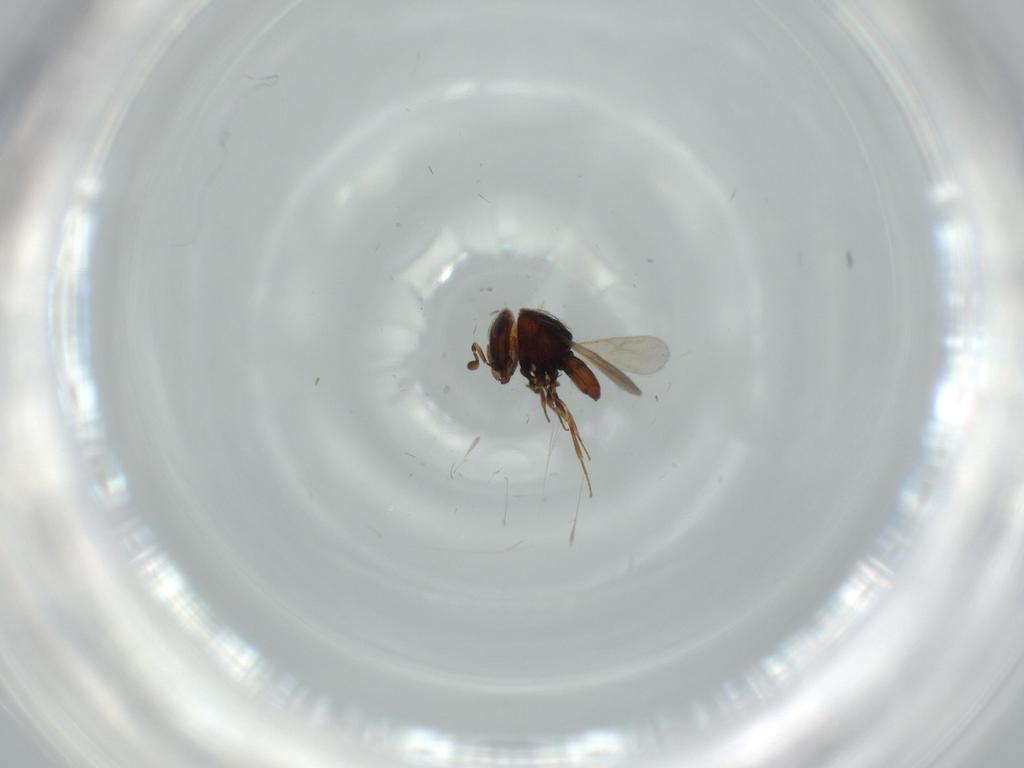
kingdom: Animalia
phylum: Arthropoda
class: Insecta
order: Hymenoptera
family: Scelionidae
